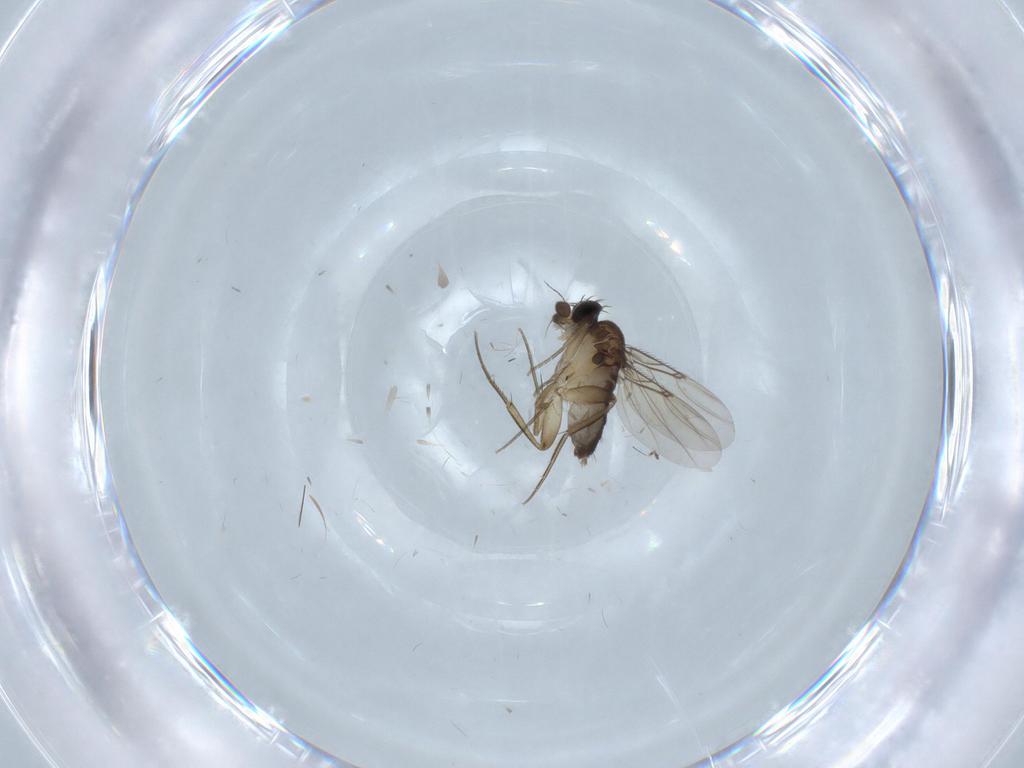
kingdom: Animalia
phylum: Arthropoda
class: Insecta
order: Diptera
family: Phoridae
